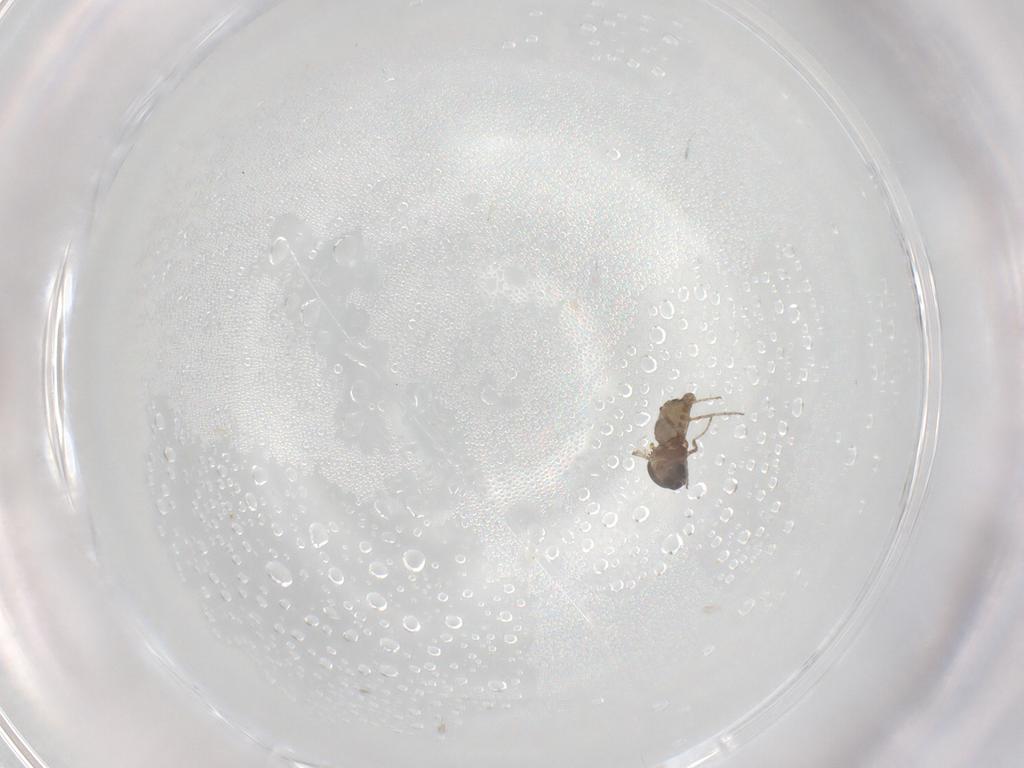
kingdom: Animalia
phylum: Arthropoda
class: Insecta
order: Diptera
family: Ceratopogonidae
